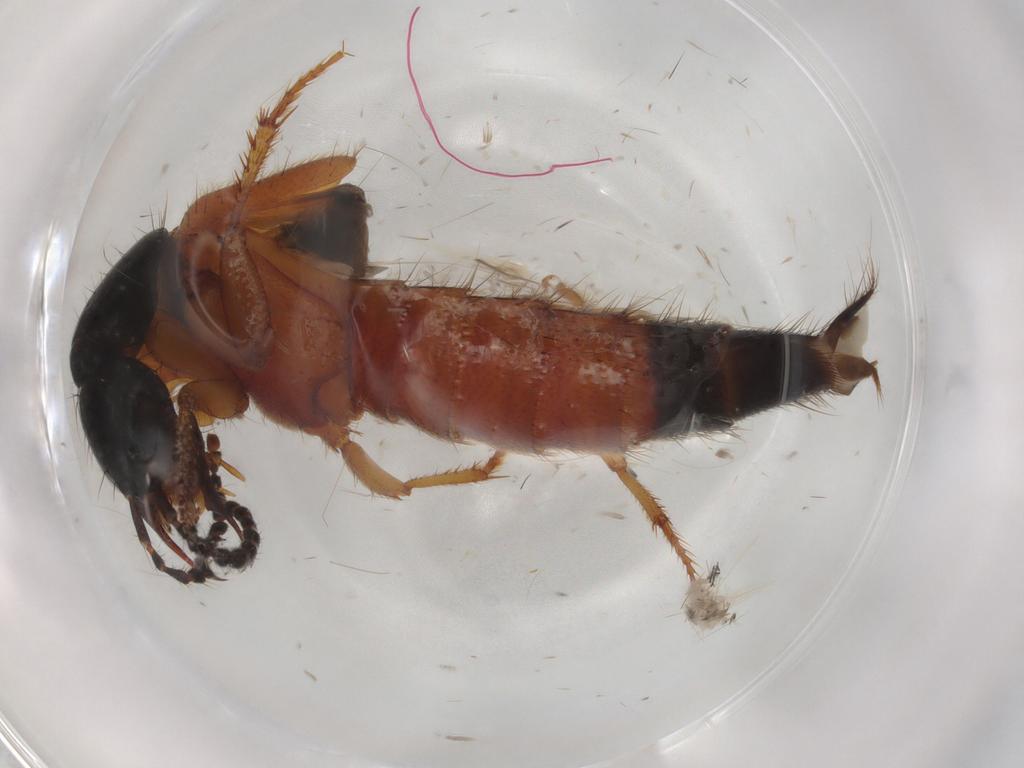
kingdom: Animalia
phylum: Arthropoda
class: Insecta
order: Coleoptera
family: Staphylinidae
